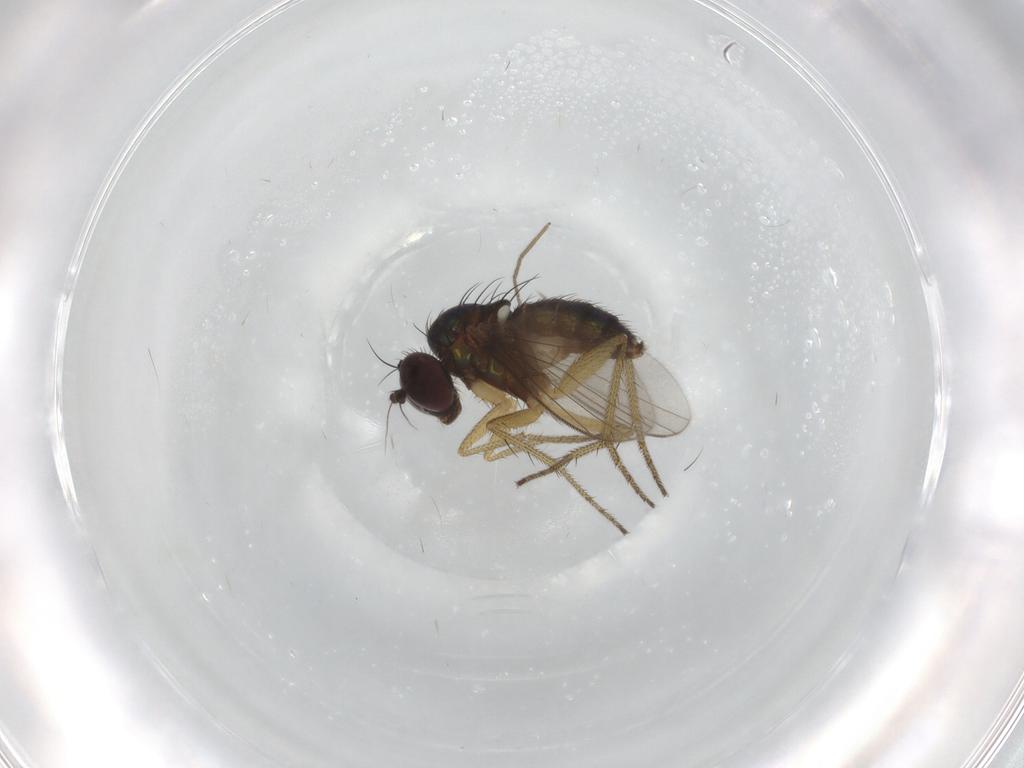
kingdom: Animalia
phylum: Arthropoda
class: Insecta
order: Diptera
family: Dolichopodidae
